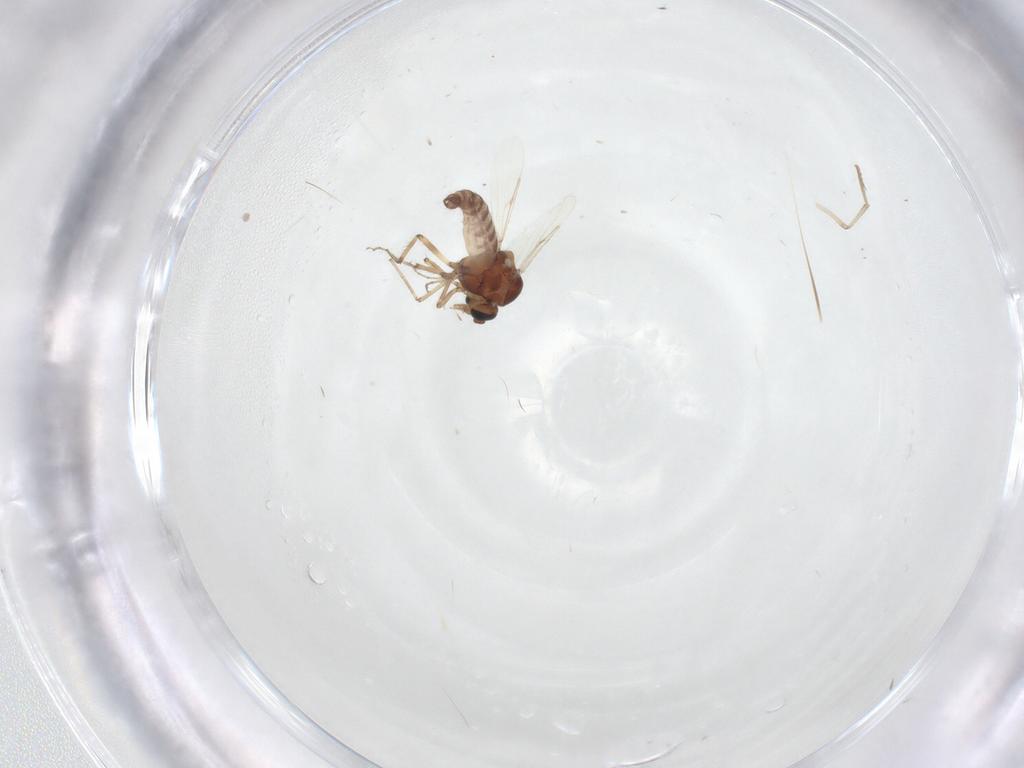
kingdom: Animalia
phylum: Arthropoda
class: Insecta
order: Diptera
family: Ceratopogonidae
